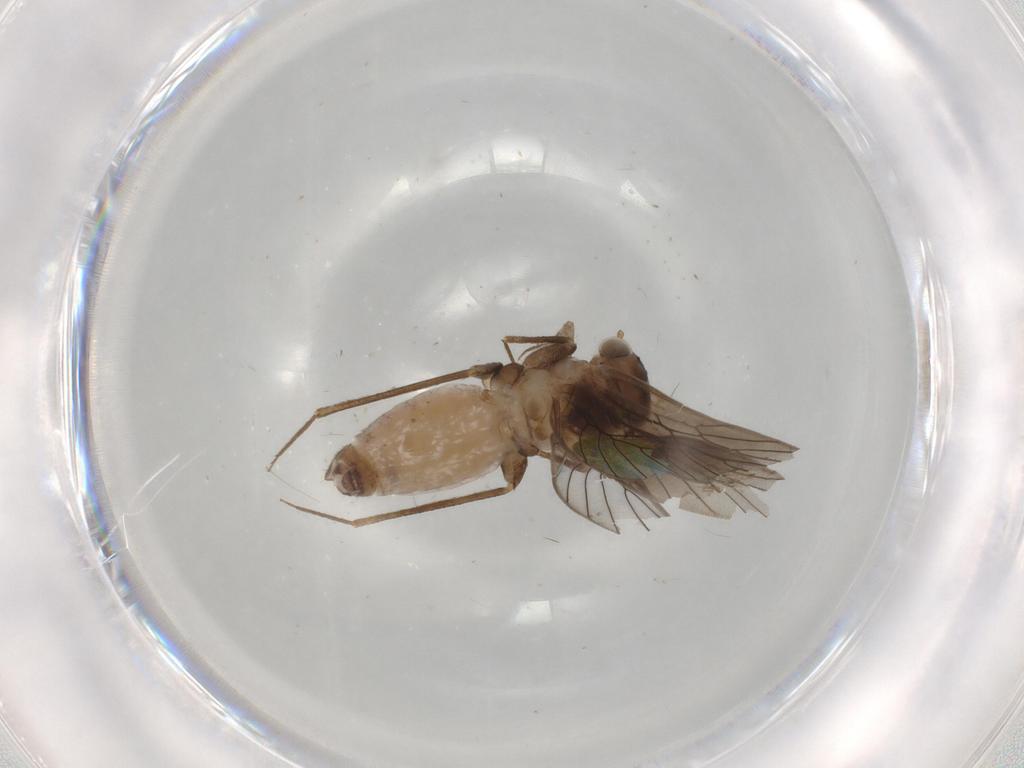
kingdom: Animalia
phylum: Arthropoda
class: Insecta
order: Psocodea
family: Lepidopsocidae
